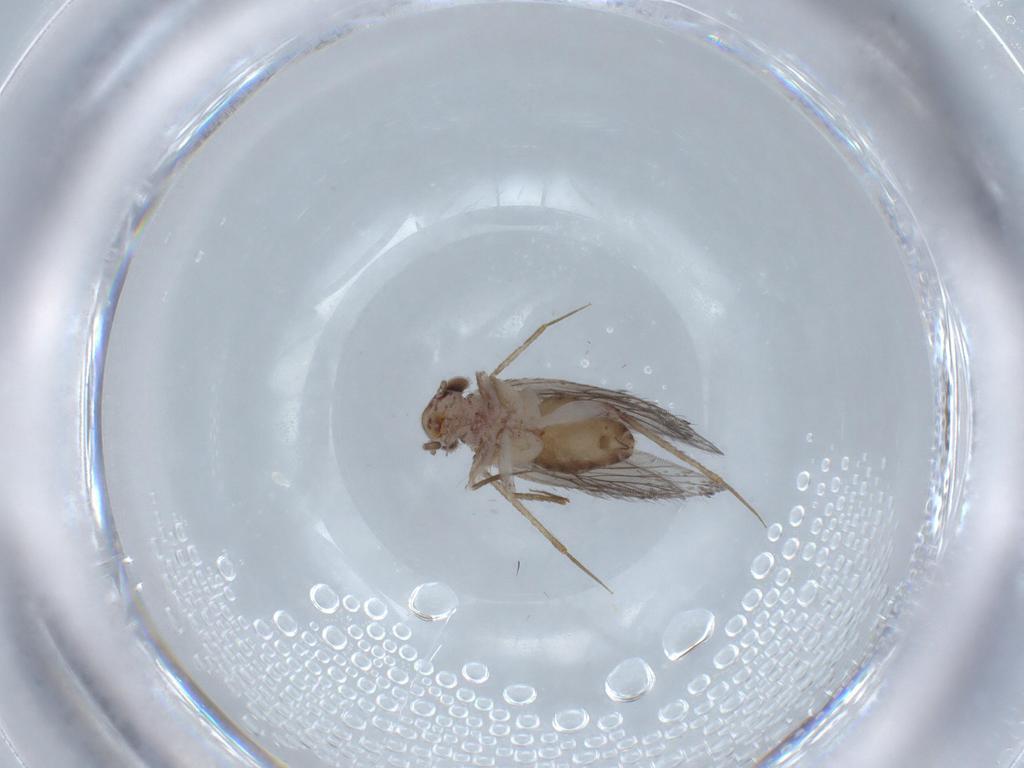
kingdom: Animalia
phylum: Arthropoda
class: Insecta
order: Psocodea
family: Lepidopsocidae
